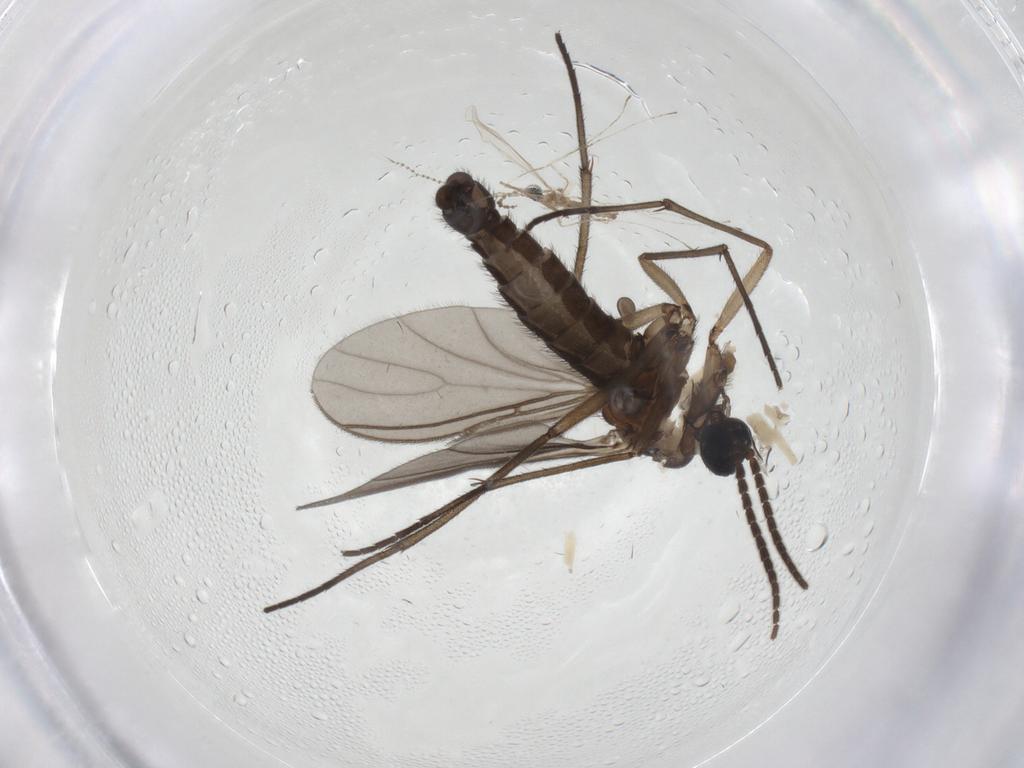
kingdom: Animalia
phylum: Arthropoda
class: Insecta
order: Diptera
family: Sciaridae
